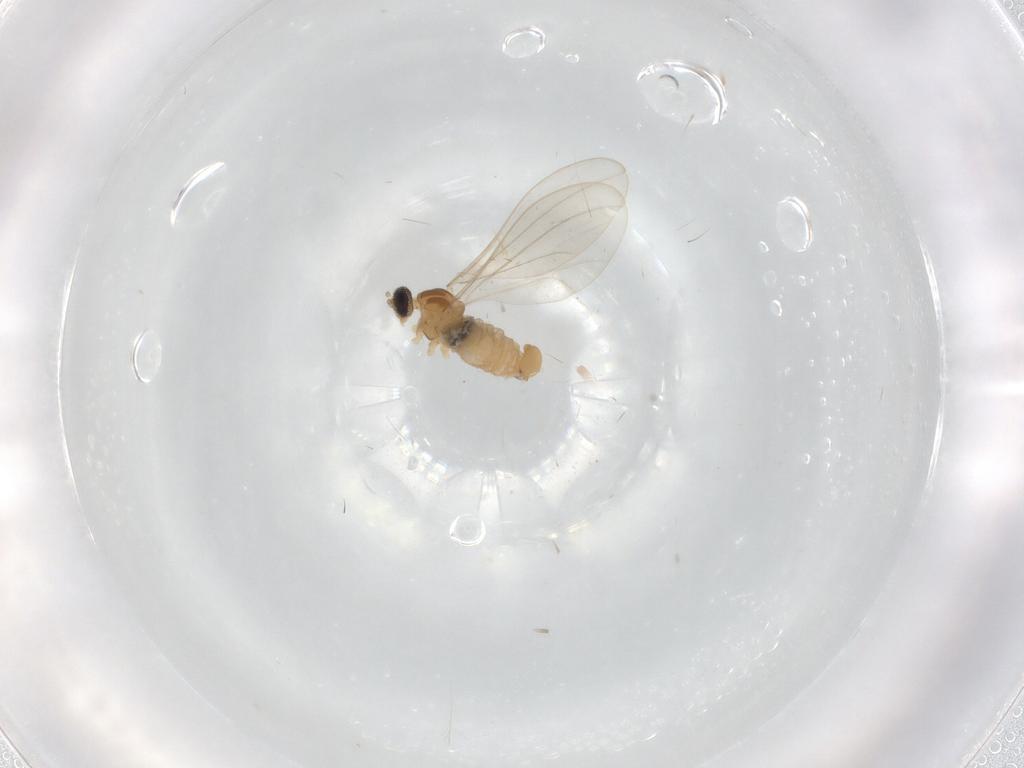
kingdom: Animalia
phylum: Arthropoda
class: Insecta
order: Diptera
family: Cecidomyiidae
